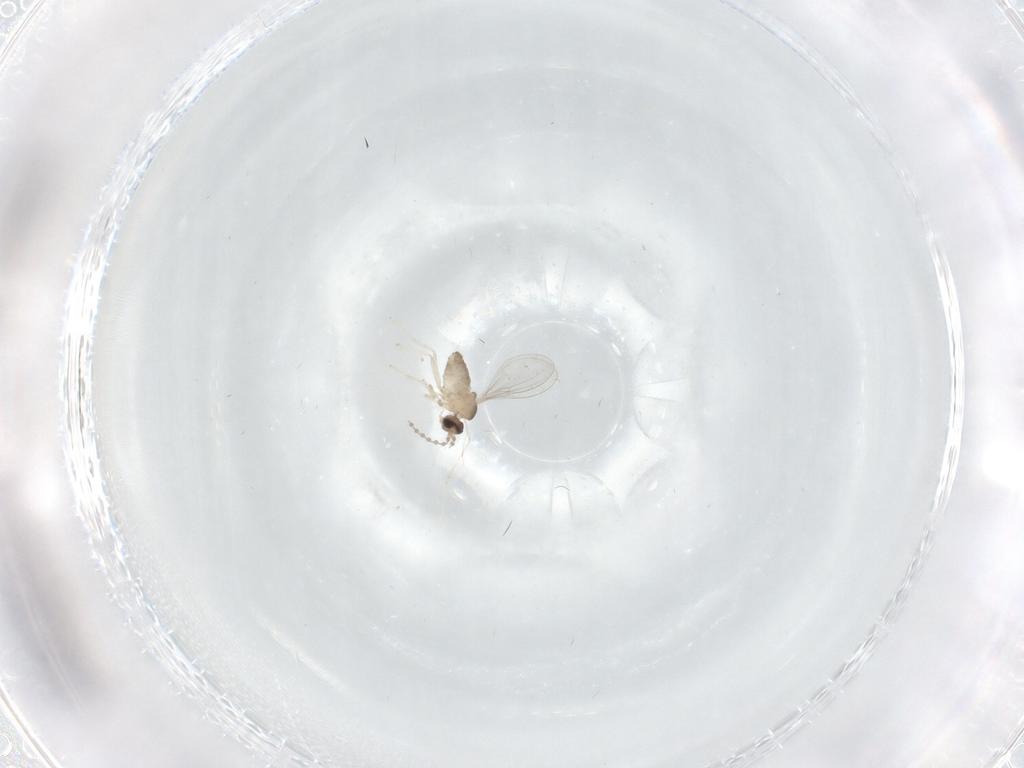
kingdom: Animalia
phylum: Arthropoda
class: Insecta
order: Diptera
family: Cecidomyiidae
